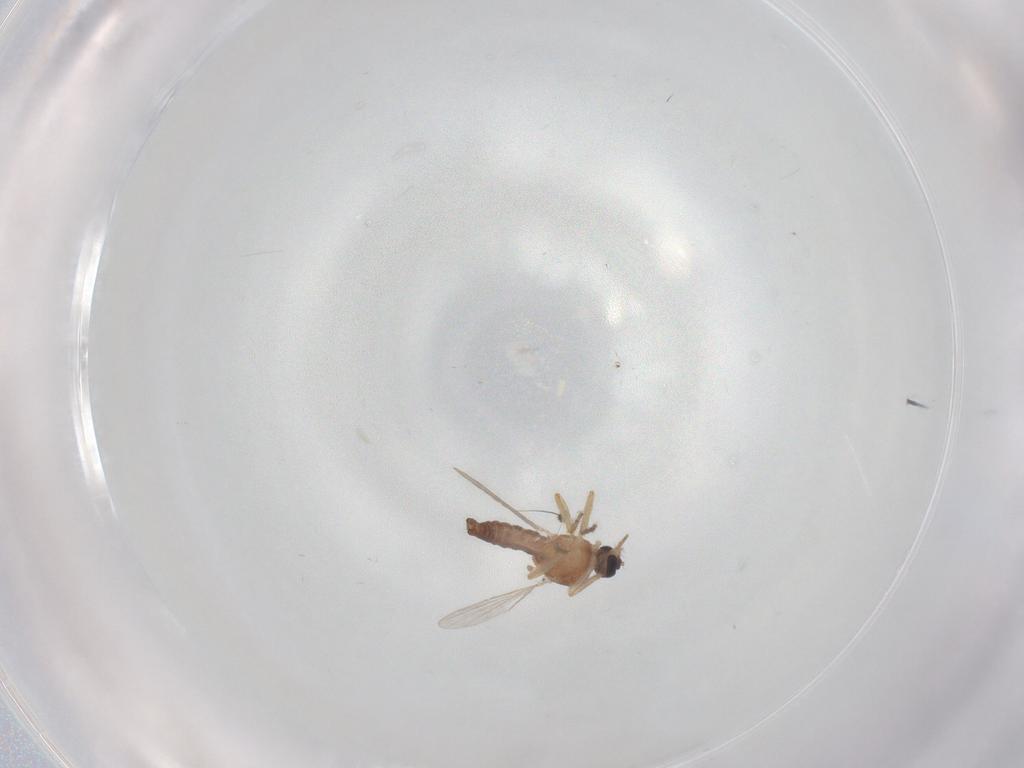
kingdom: Animalia
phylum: Arthropoda
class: Insecta
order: Diptera
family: Ceratopogonidae
